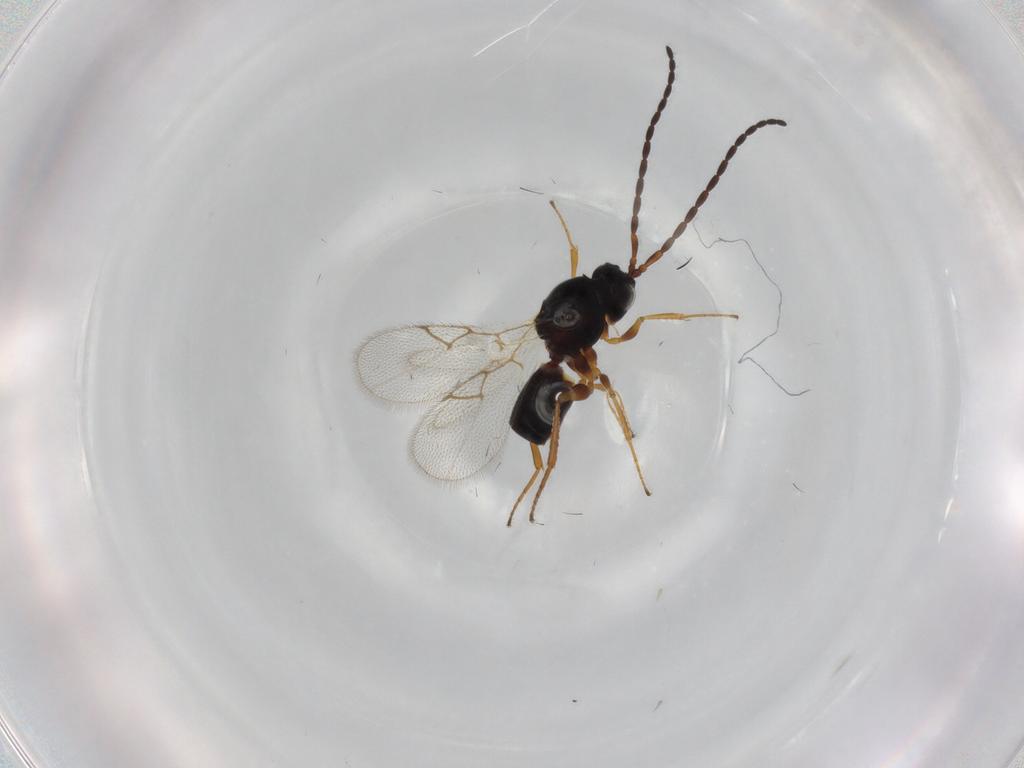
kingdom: Animalia
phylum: Arthropoda
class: Insecta
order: Hymenoptera
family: Figitidae
